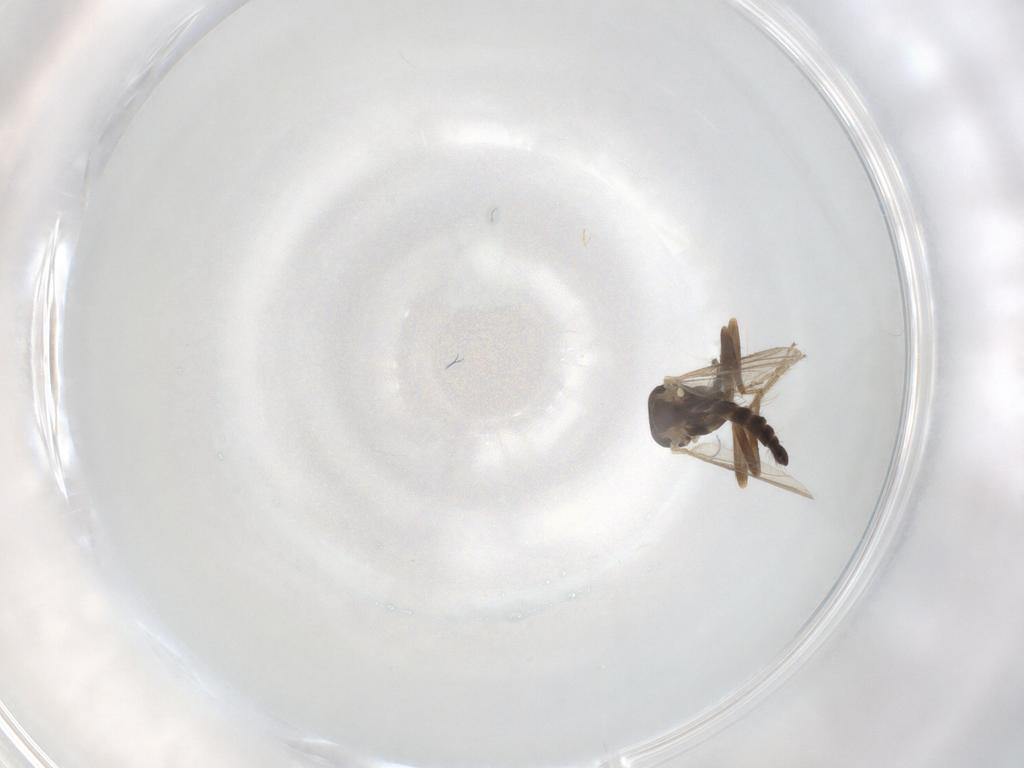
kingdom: Animalia
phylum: Arthropoda
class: Insecta
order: Diptera
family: Ceratopogonidae
